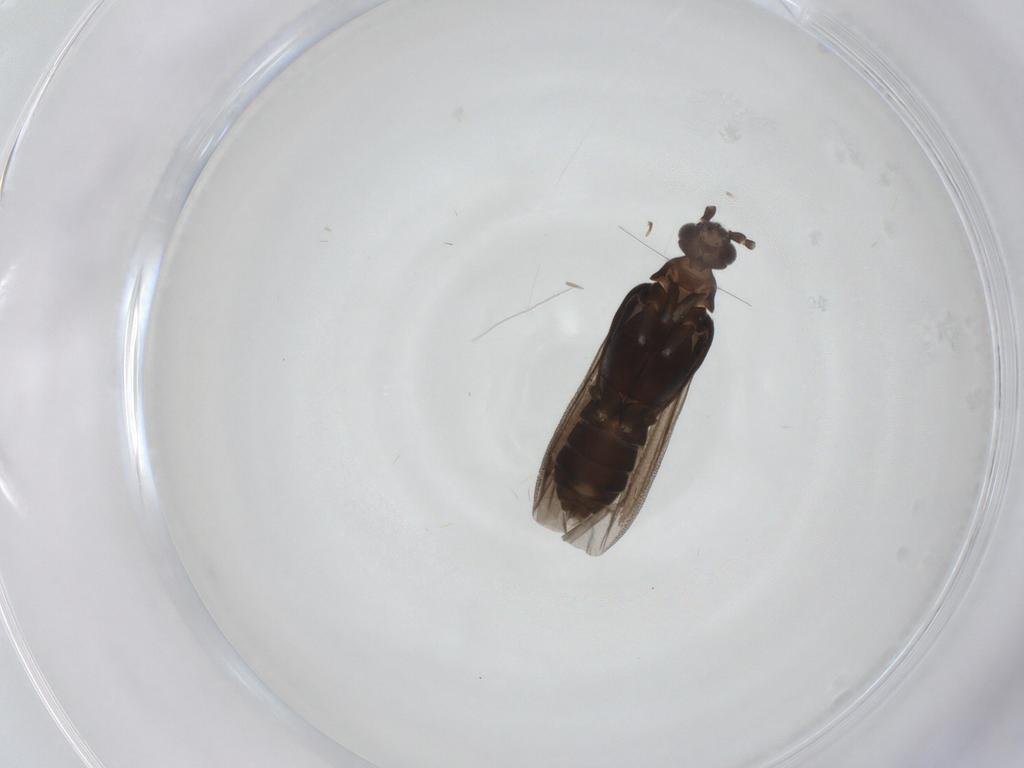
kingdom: Animalia
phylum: Arthropoda
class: Insecta
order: Coleoptera
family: Cantharidae
